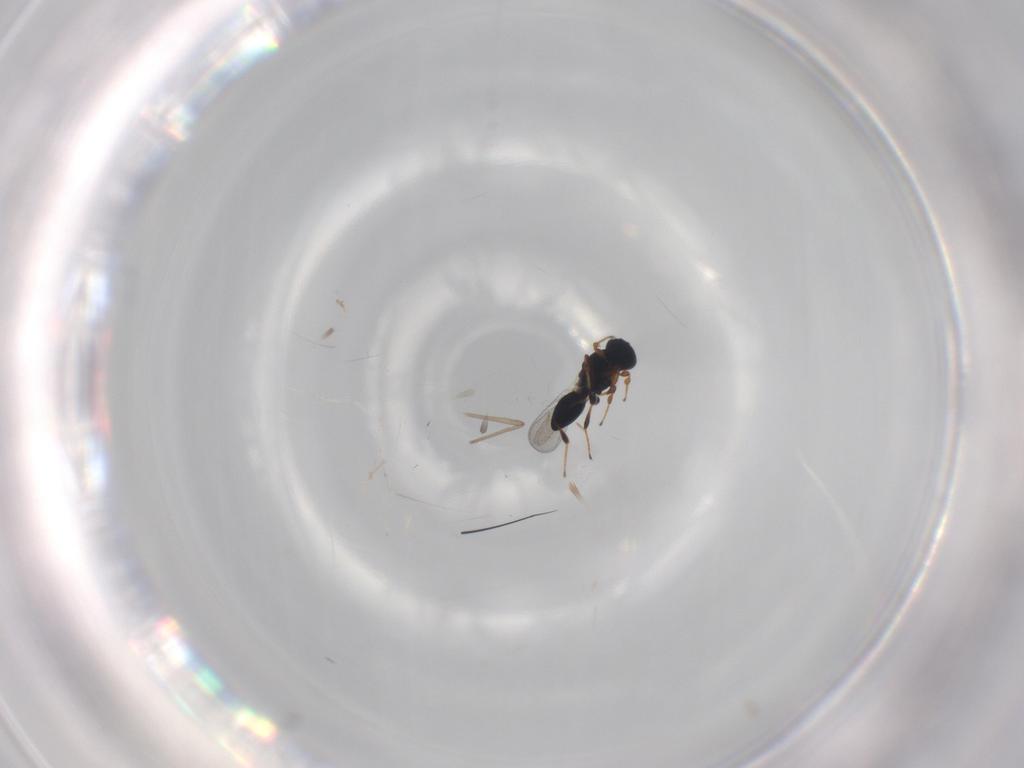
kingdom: Animalia
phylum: Arthropoda
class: Insecta
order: Hymenoptera
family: Platygastridae
